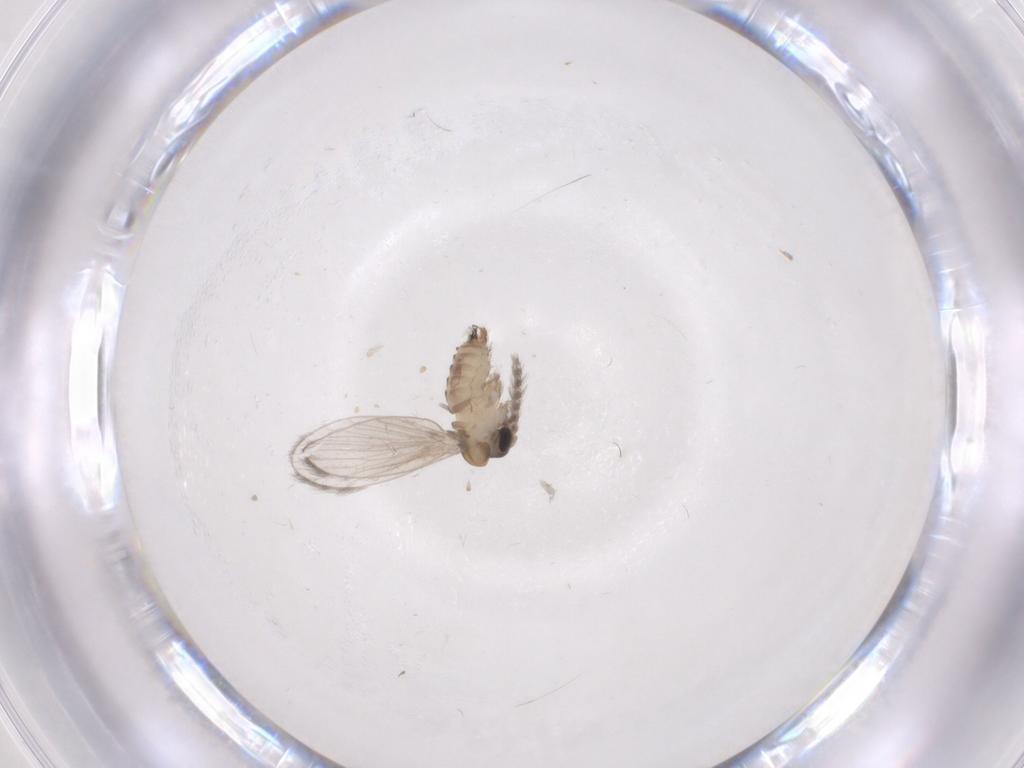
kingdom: Animalia
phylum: Arthropoda
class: Insecta
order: Diptera
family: Psychodidae
